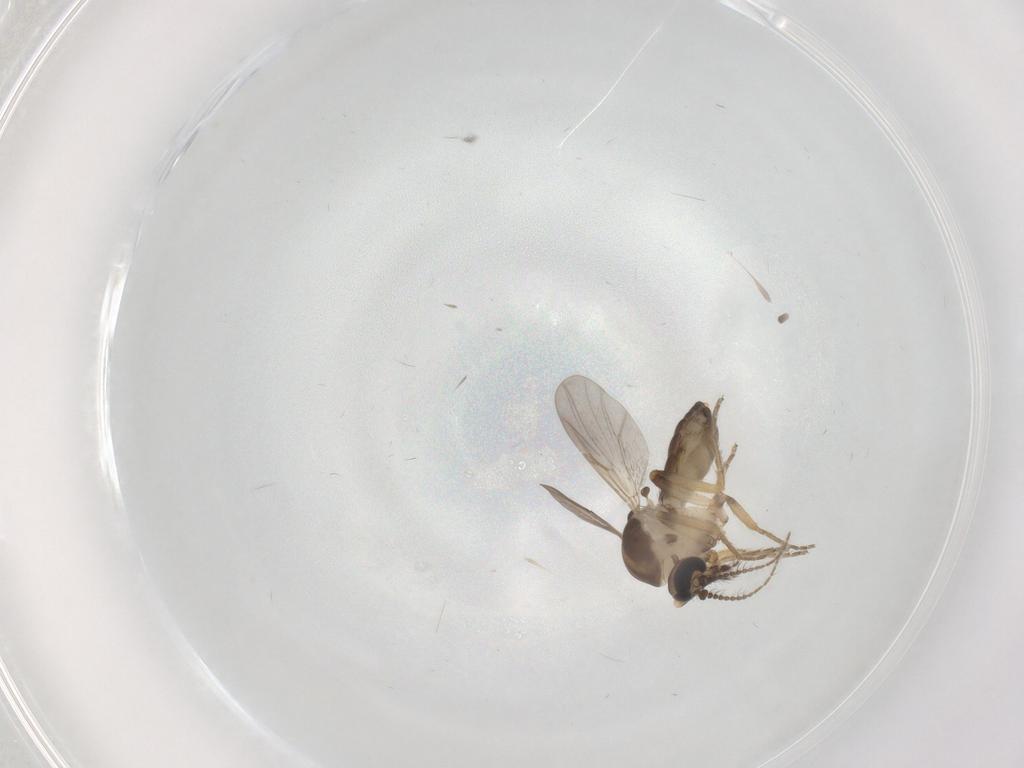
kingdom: Animalia
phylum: Arthropoda
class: Insecta
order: Diptera
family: Ceratopogonidae
